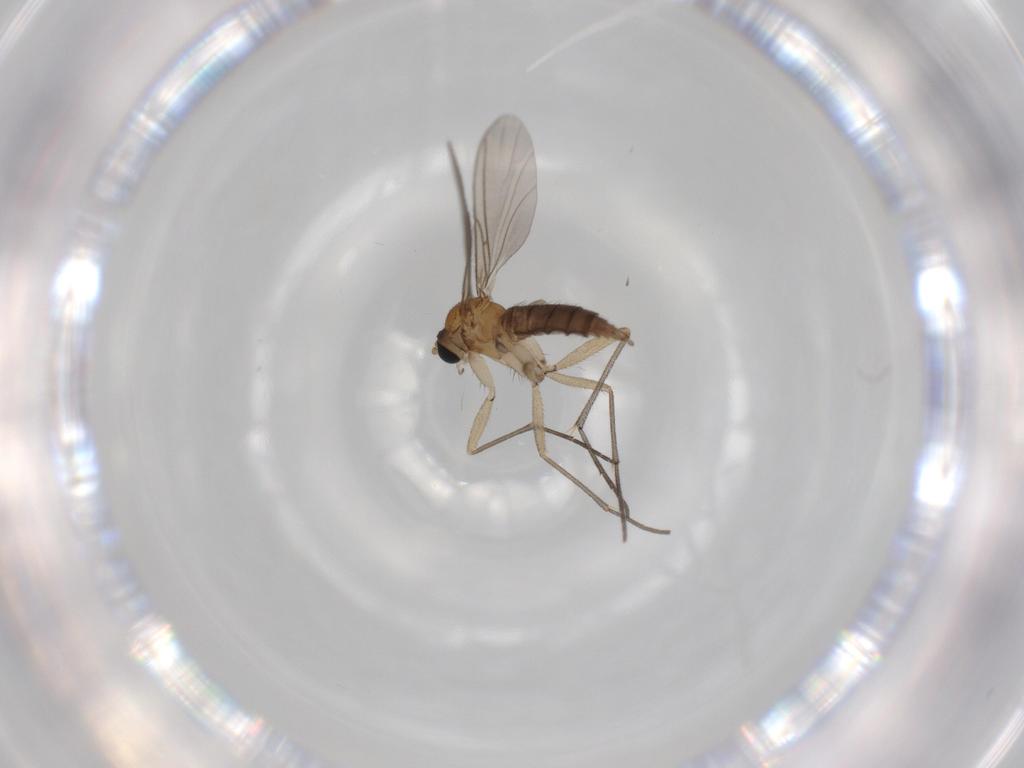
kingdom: Animalia
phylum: Arthropoda
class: Insecta
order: Diptera
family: Sciaridae
